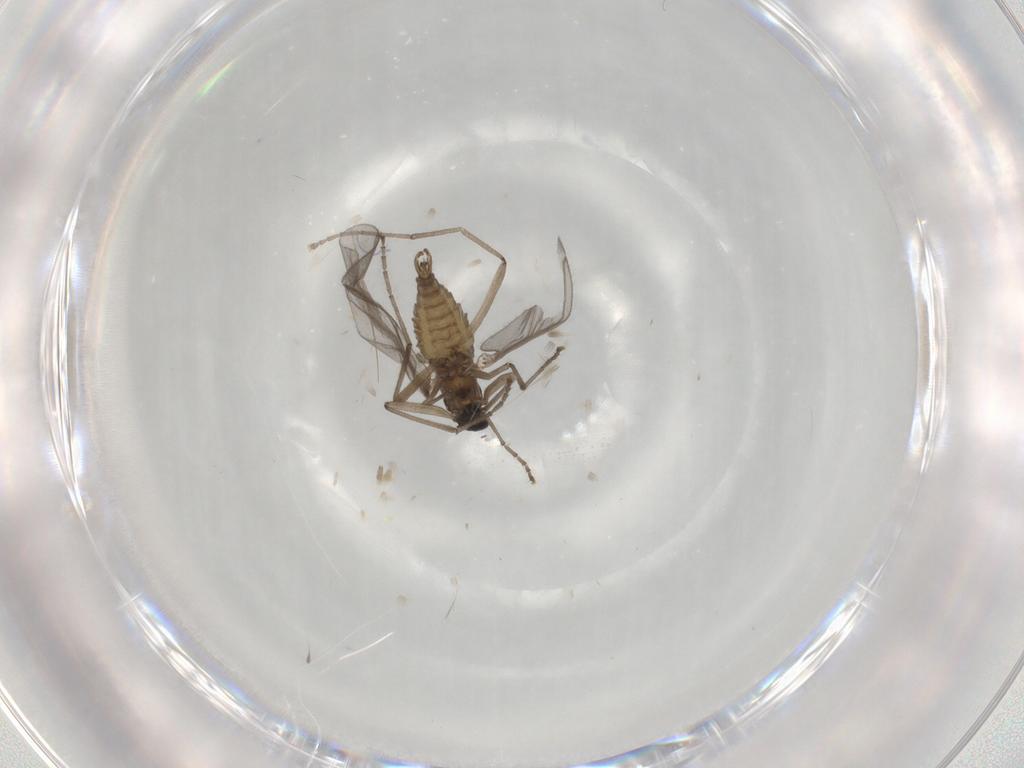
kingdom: Animalia
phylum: Arthropoda
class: Insecta
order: Diptera
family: Cecidomyiidae
